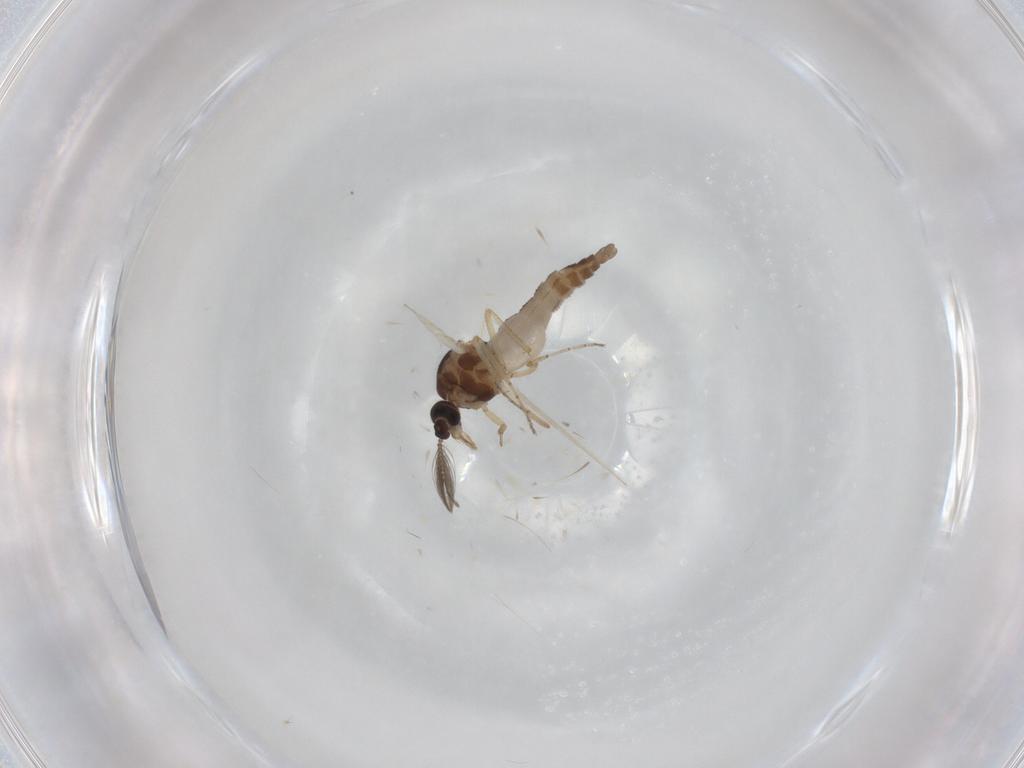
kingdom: Animalia
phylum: Arthropoda
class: Insecta
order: Diptera
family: Ceratopogonidae
